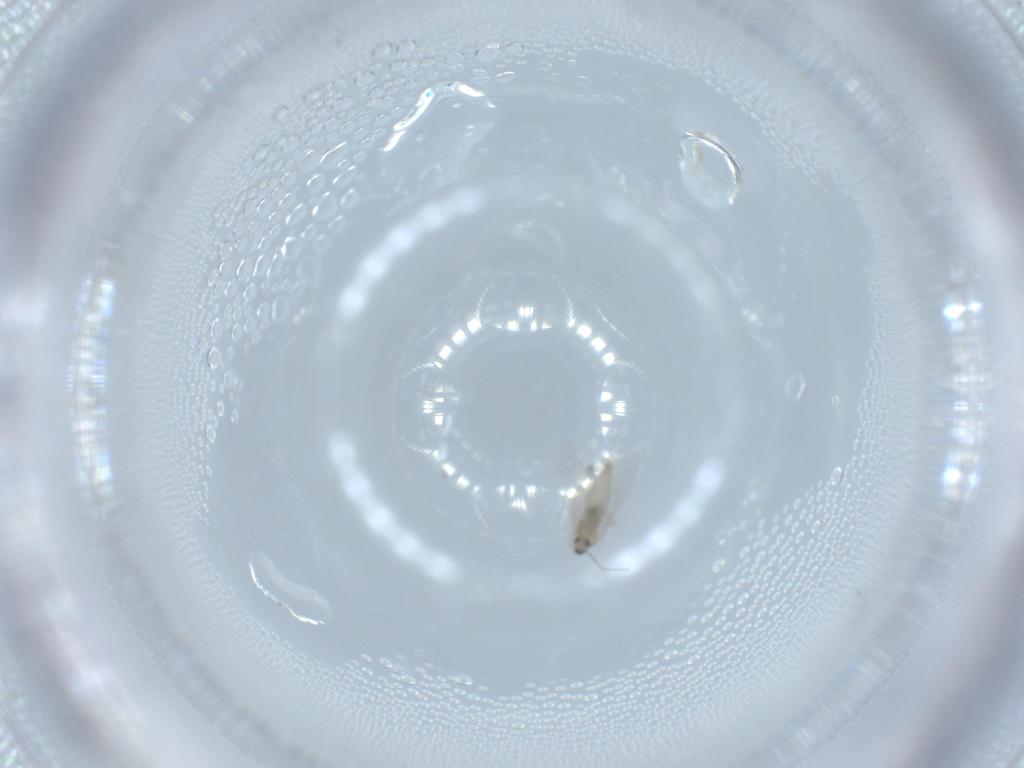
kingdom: Animalia
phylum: Arthropoda
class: Insecta
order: Diptera
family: Cecidomyiidae
